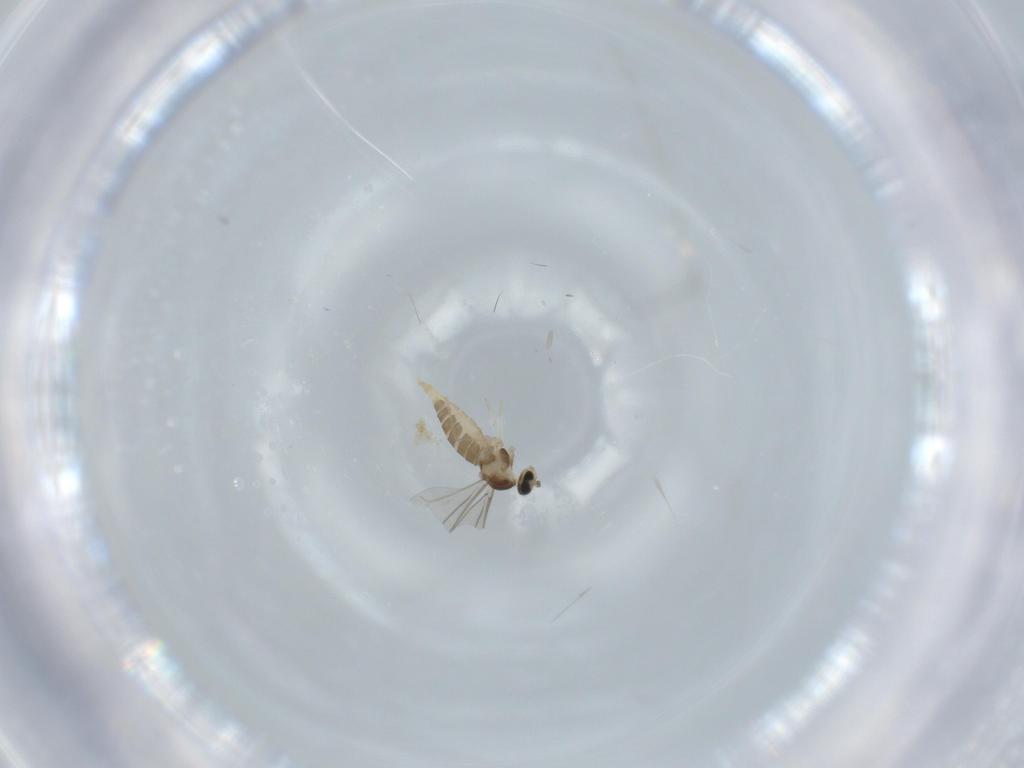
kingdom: Animalia
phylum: Arthropoda
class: Insecta
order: Diptera
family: Cecidomyiidae
